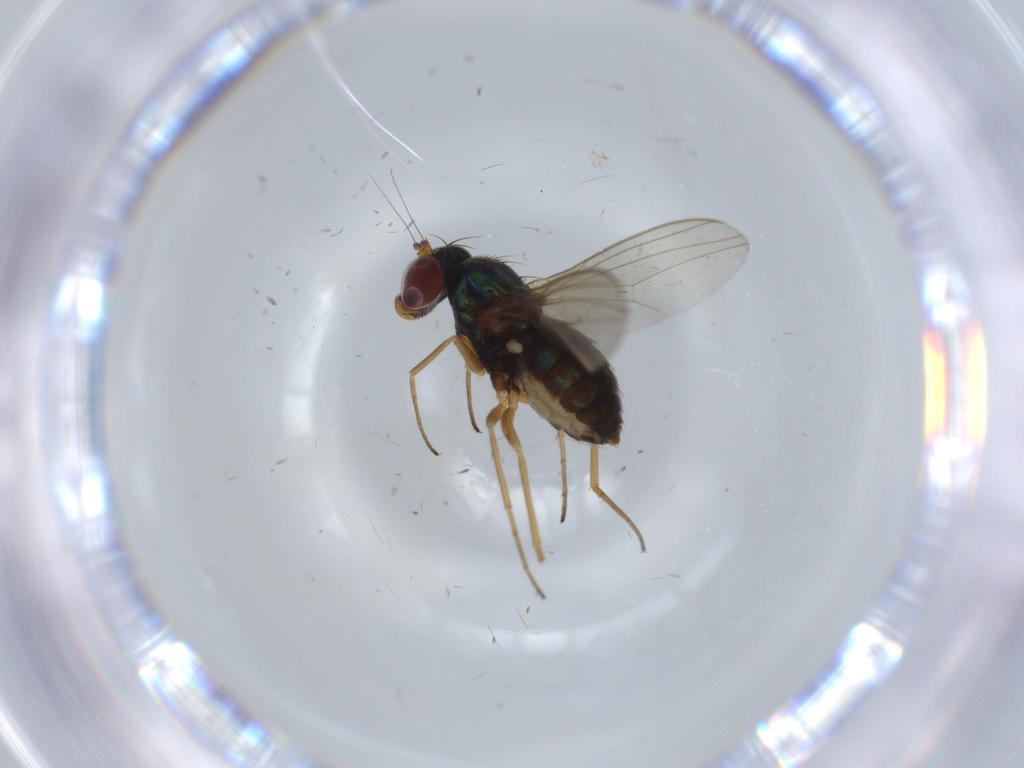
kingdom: Animalia
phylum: Arthropoda
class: Insecta
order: Diptera
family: Dolichopodidae
